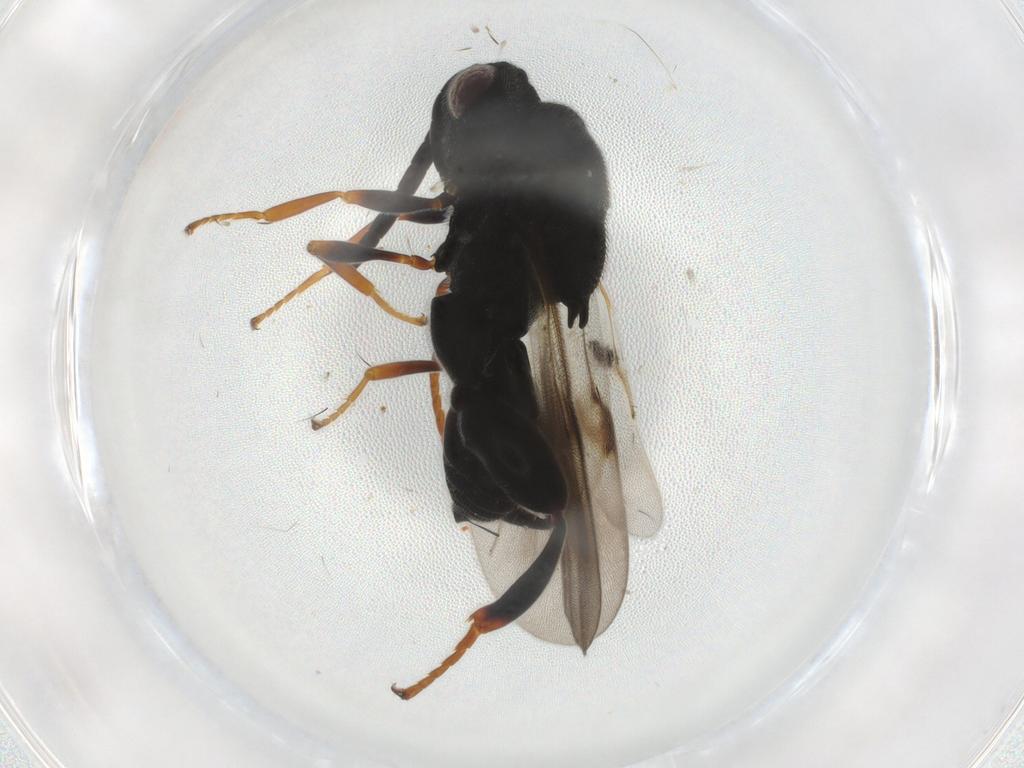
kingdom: Animalia
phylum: Arthropoda
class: Insecta
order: Hymenoptera
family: Chalcididae
